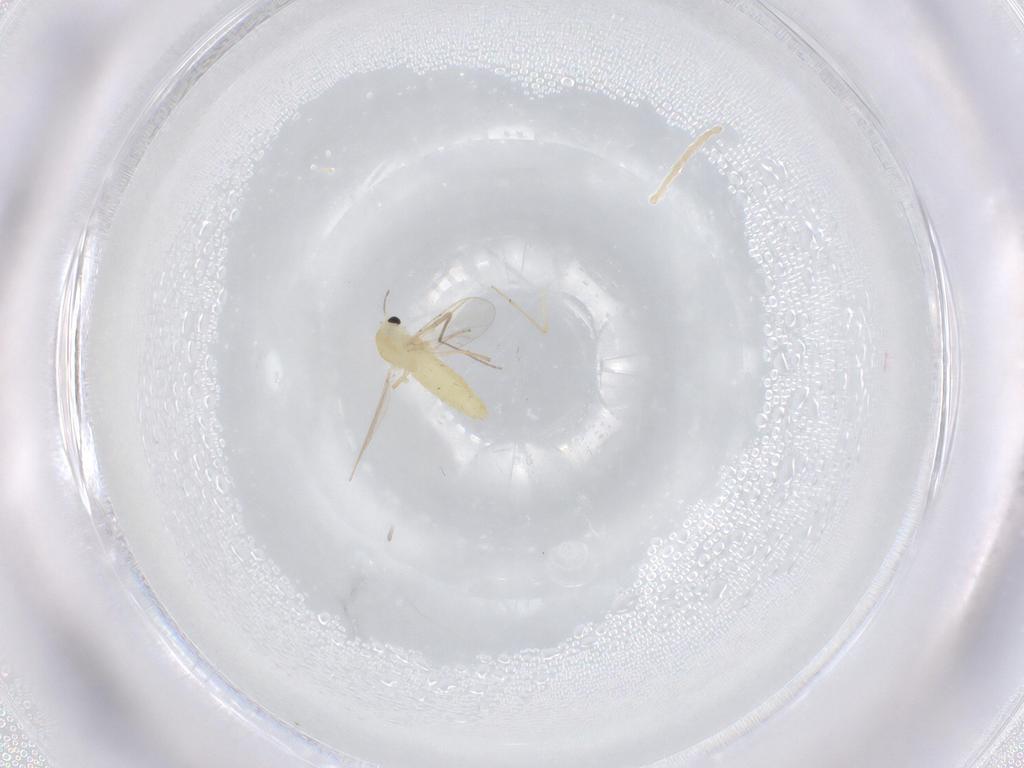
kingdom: Animalia
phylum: Arthropoda
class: Insecta
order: Diptera
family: Chironomidae
